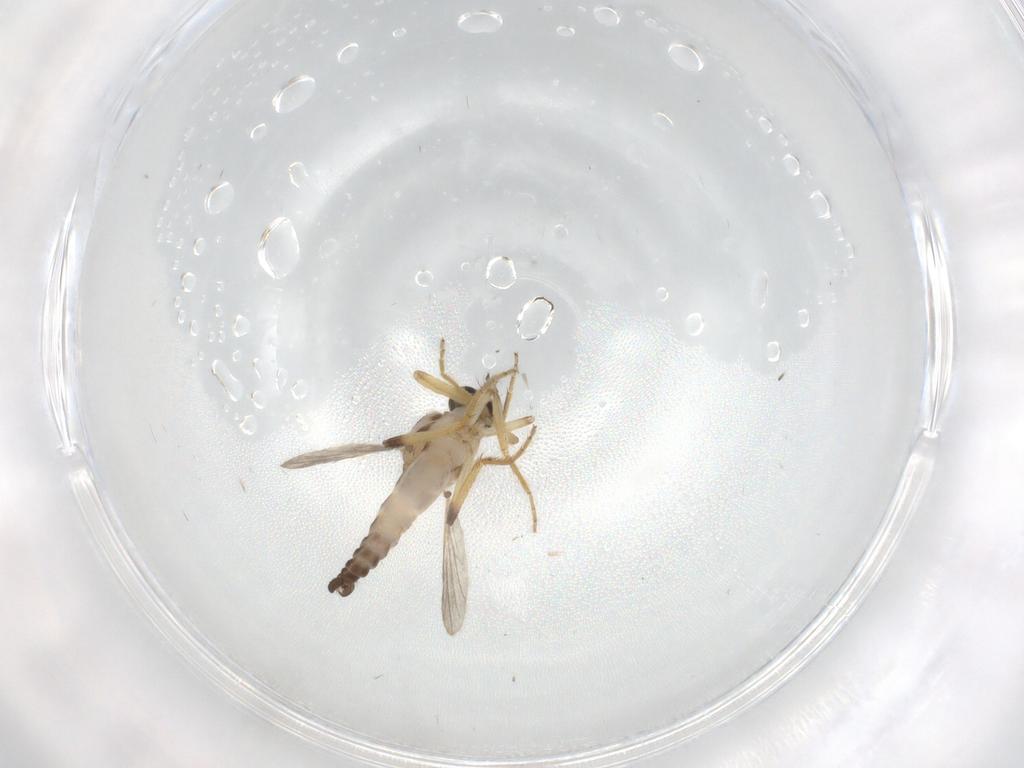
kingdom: Animalia
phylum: Arthropoda
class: Insecta
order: Diptera
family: Ceratopogonidae
